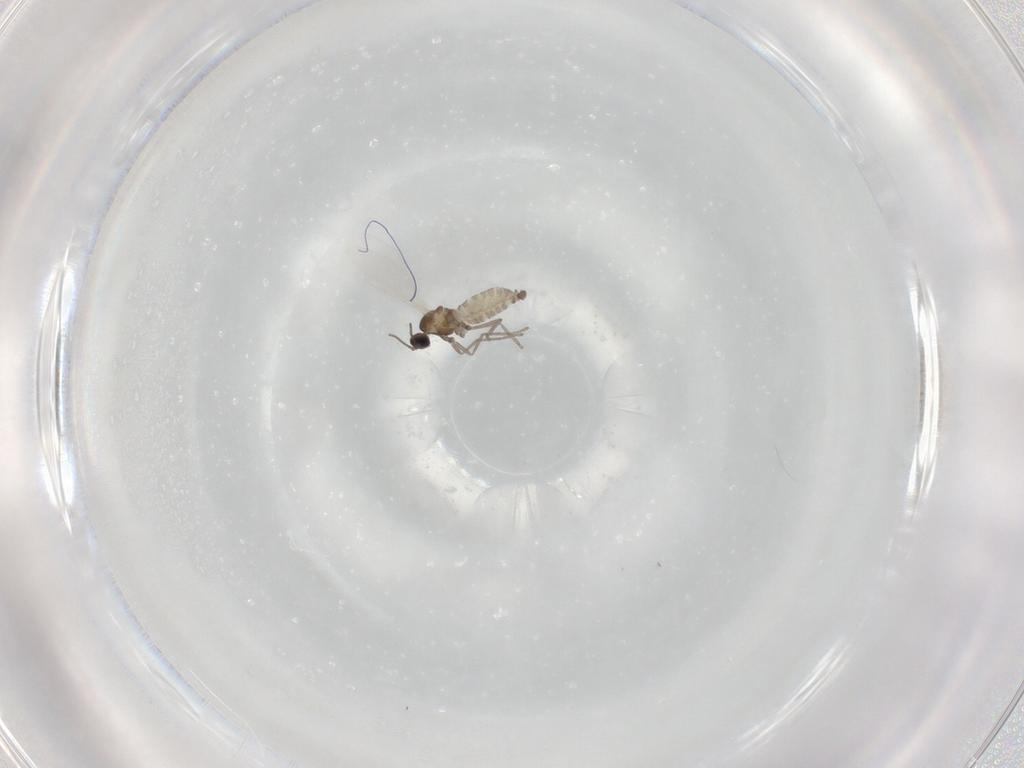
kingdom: Animalia
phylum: Arthropoda
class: Insecta
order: Diptera
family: Cecidomyiidae
